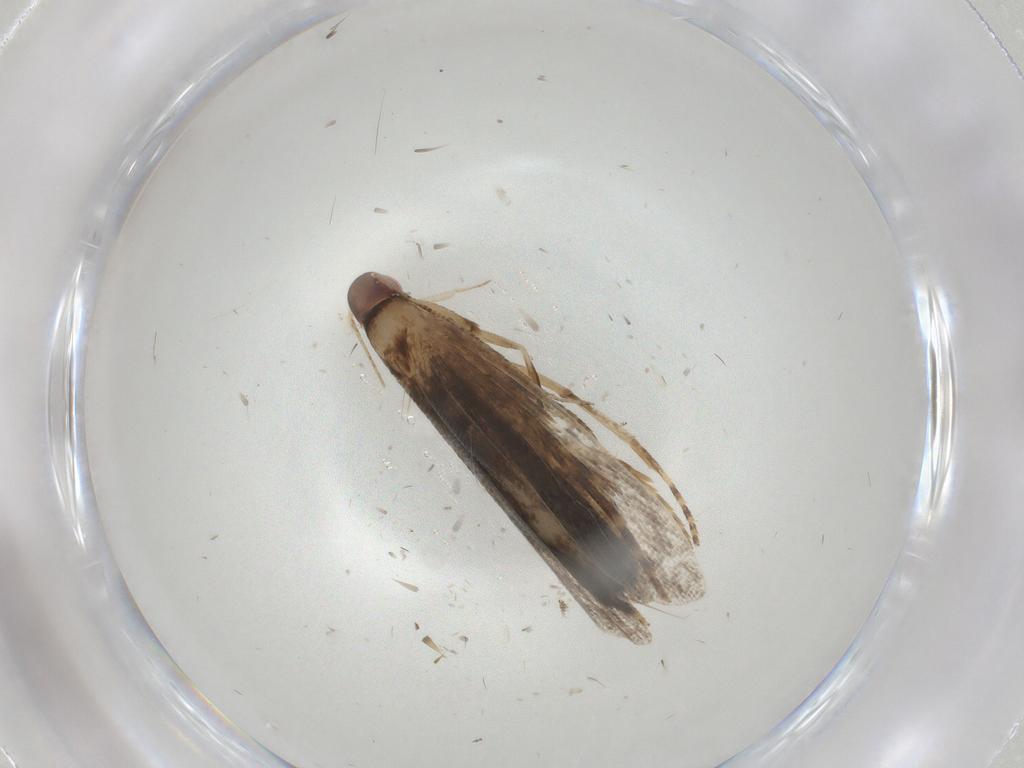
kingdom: Animalia
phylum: Arthropoda
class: Insecta
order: Lepidoptera
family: Gelechiidae
